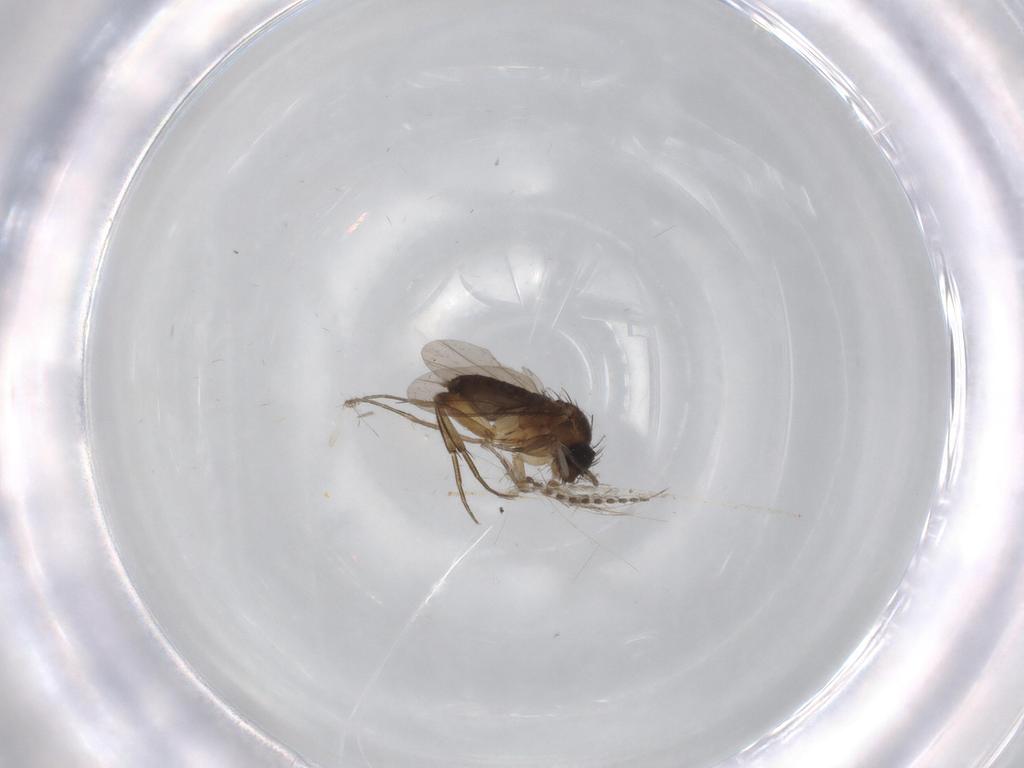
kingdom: Animalia
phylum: Arthropoda
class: Insecta
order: Diptera
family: Phoridae
